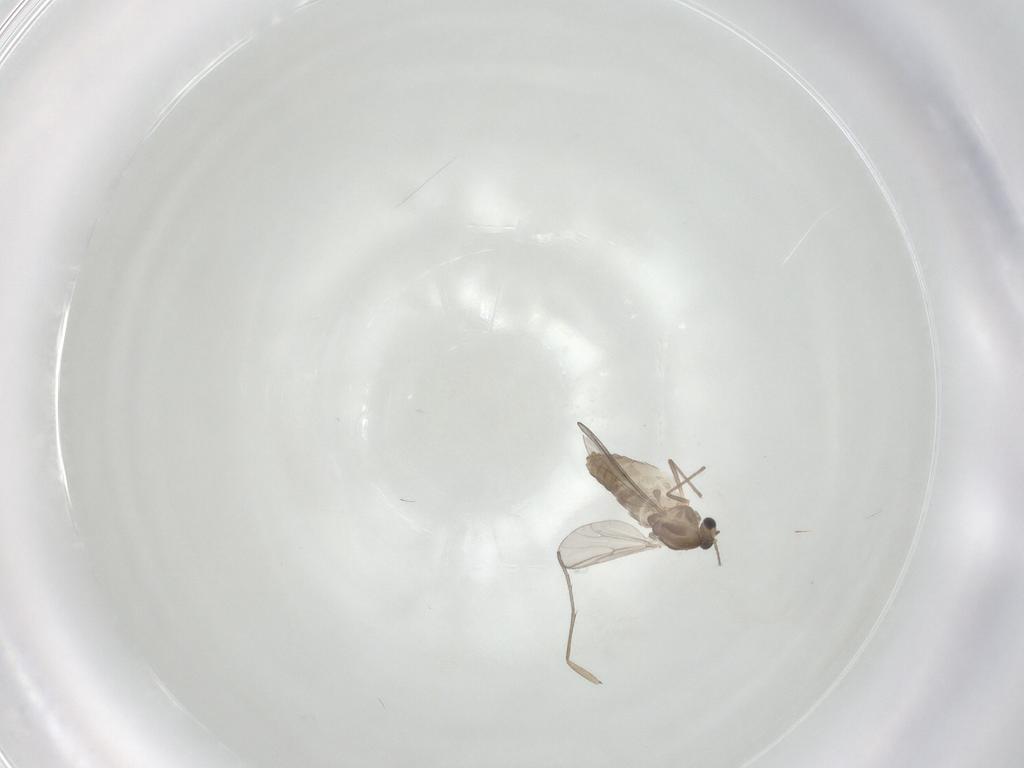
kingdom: Animalia
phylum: Arthropoda
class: Insecta
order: Diptera
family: Chironomidae
